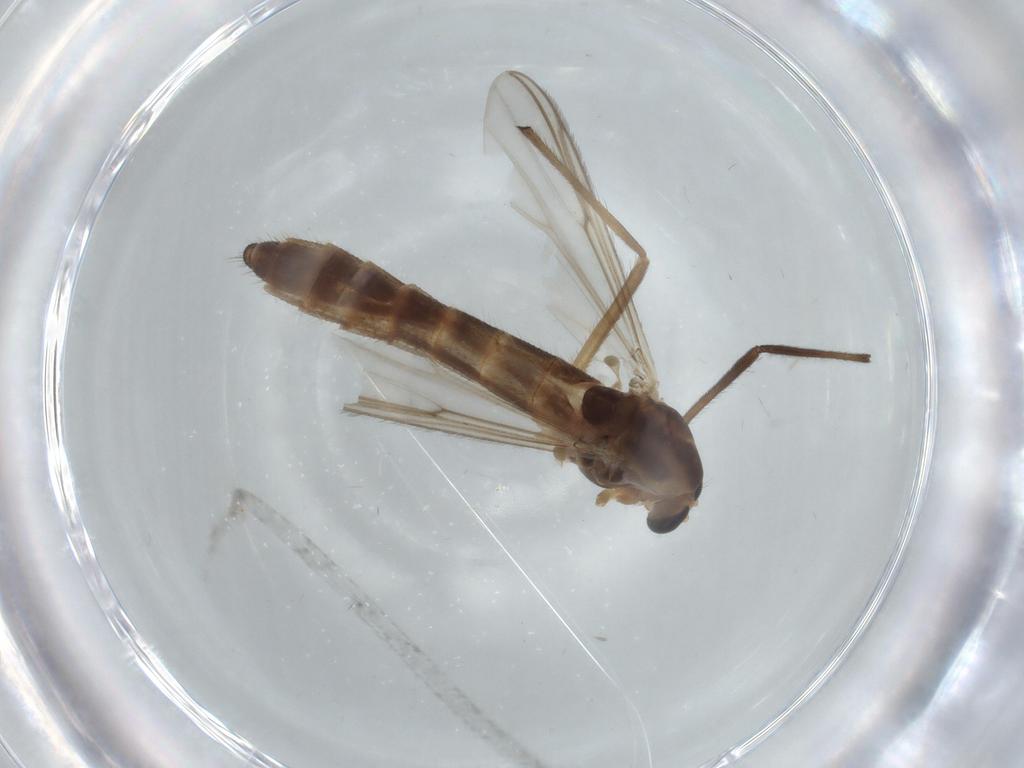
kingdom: Animalia
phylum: Arthropoda
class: Insecta
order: Diptera
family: Chironomidae
